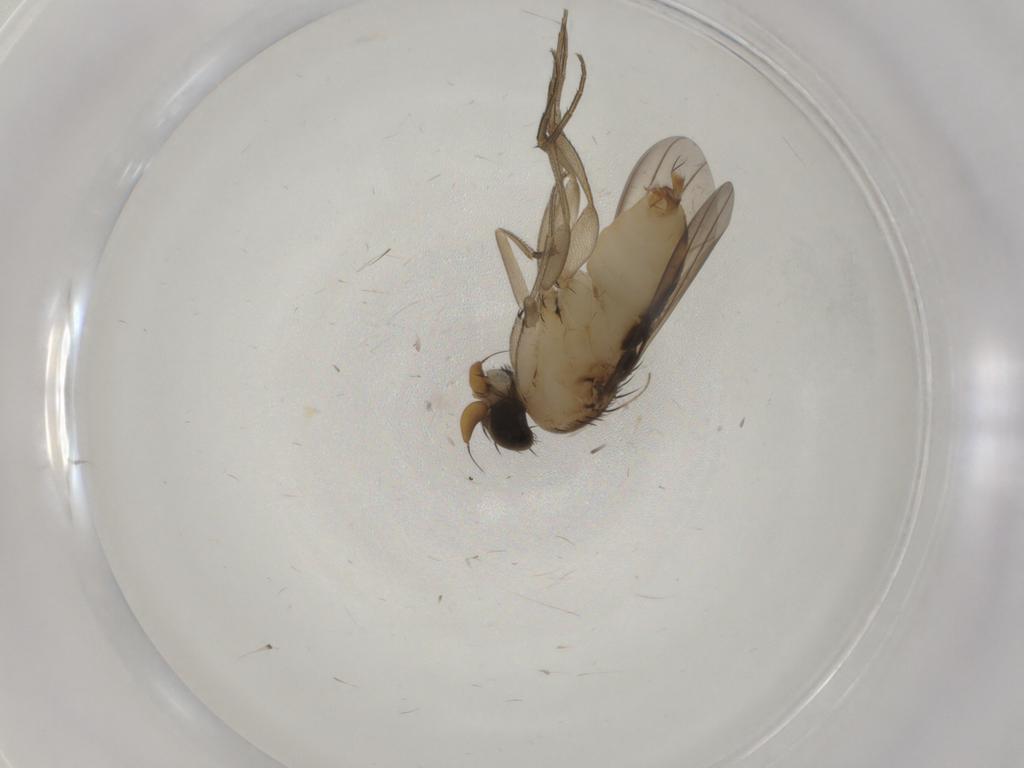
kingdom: Animalia
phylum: Arthropoda
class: Insecta
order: Diptera
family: Phoridae
